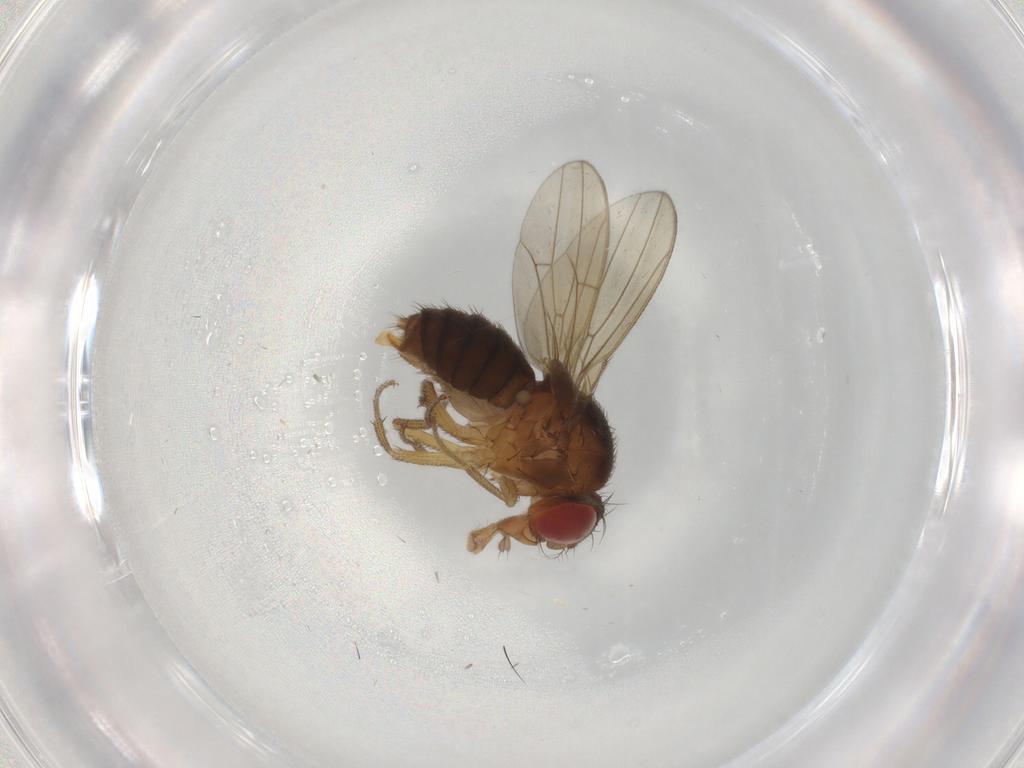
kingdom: Animalia
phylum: Arthropoda
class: Insecta
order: Diptera
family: Limoniidae
